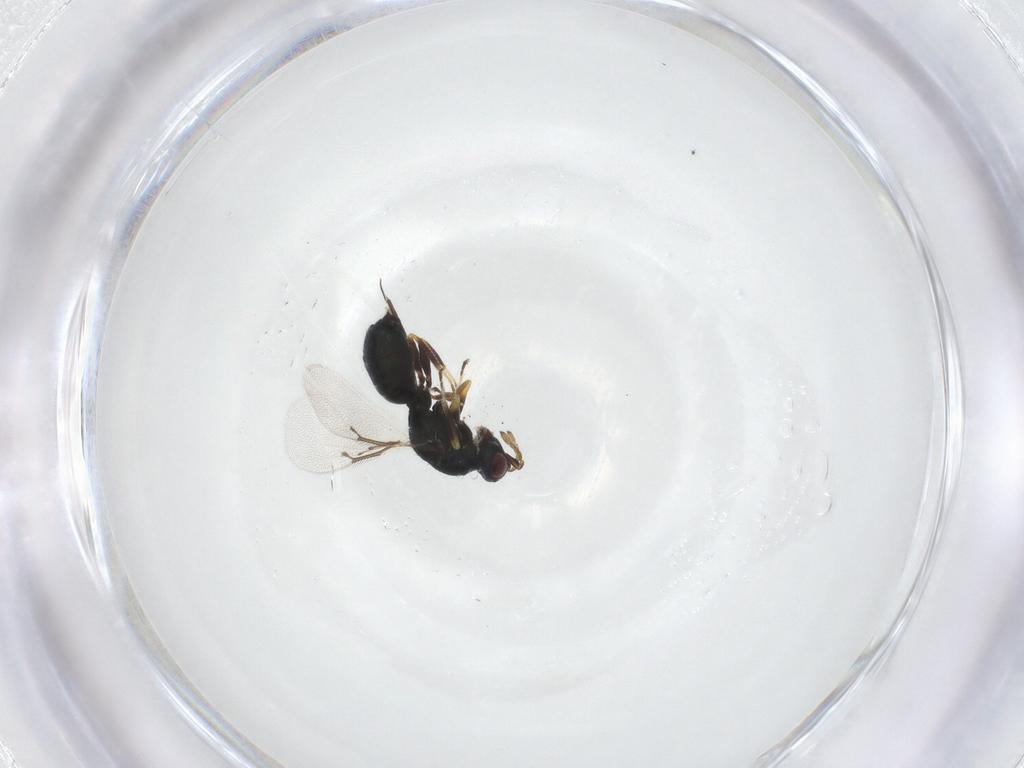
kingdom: Animalia
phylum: Arthropoda
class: Insecta
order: Hymenoptera
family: Eulophidae
